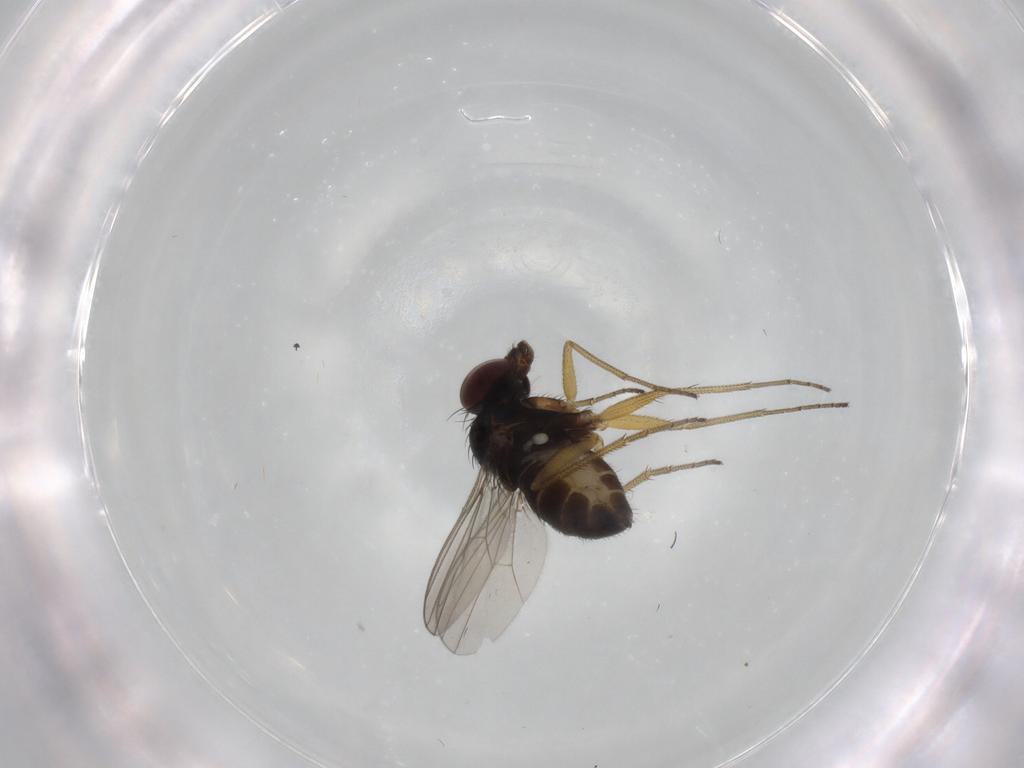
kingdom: Animalia
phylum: Arthropoda
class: Insecta
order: Diptera
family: Dolichopodidae
